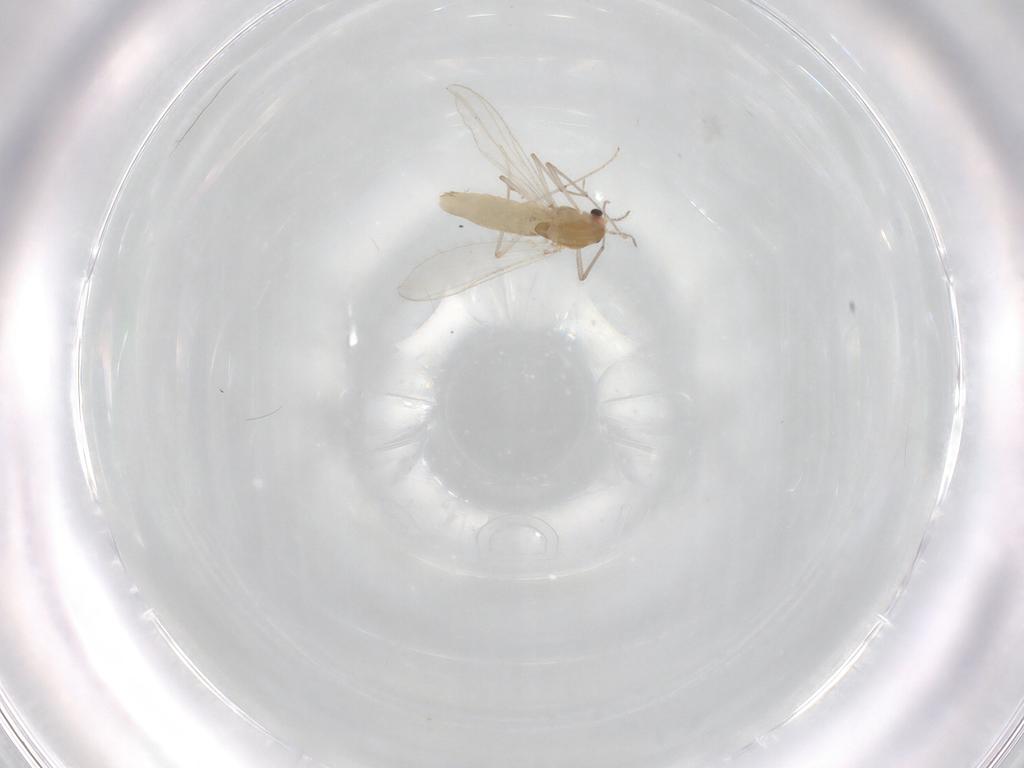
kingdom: Animalia
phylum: Arthropoda
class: Insecta
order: Diptera
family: Chironomidae
